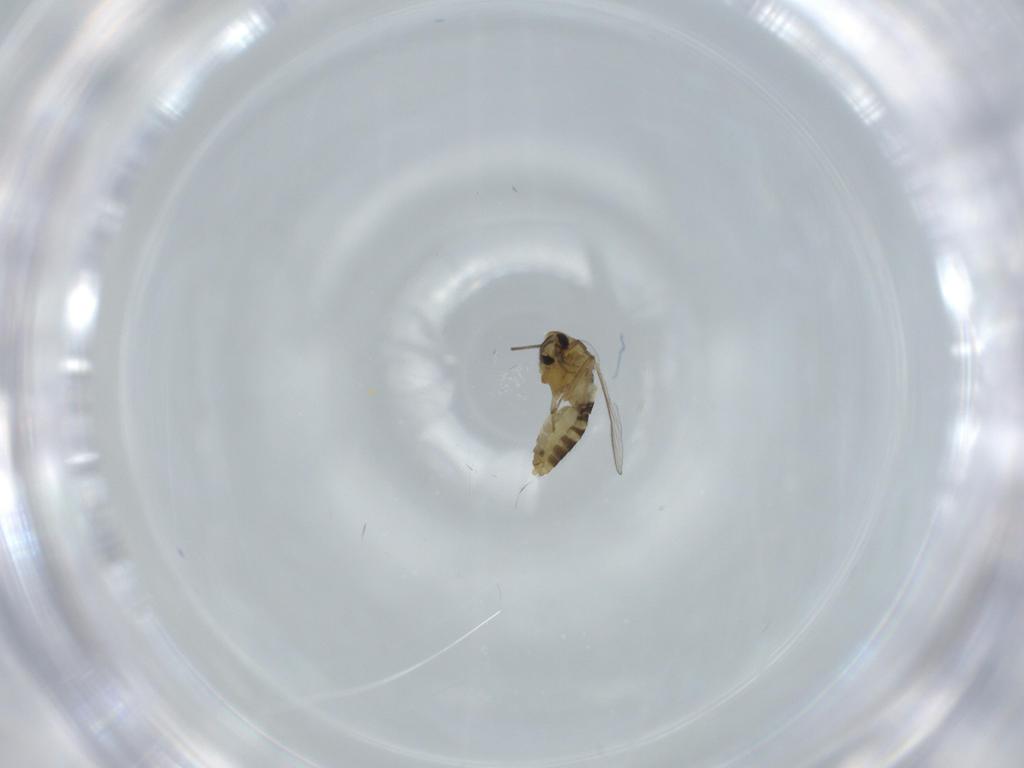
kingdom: Animalia
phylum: Arthropoda
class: Insecta
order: Diptera
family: Chironomidae
